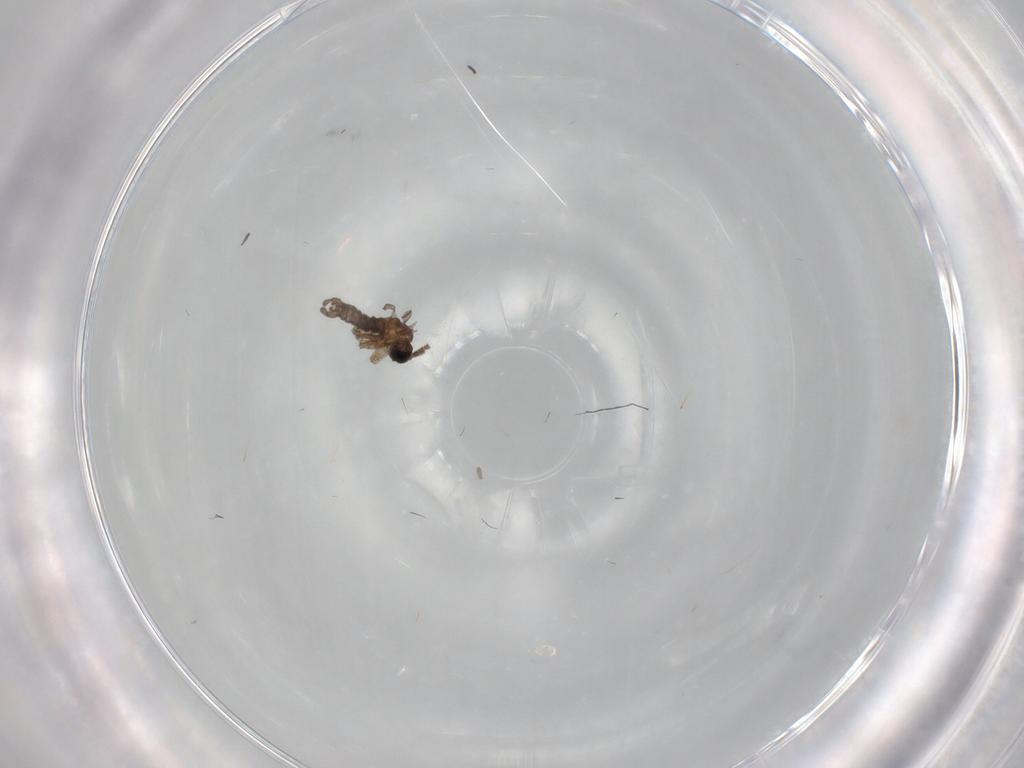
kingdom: Animalia
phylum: Arthropoda
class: Insecta
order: Diptera
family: Sciaridae
